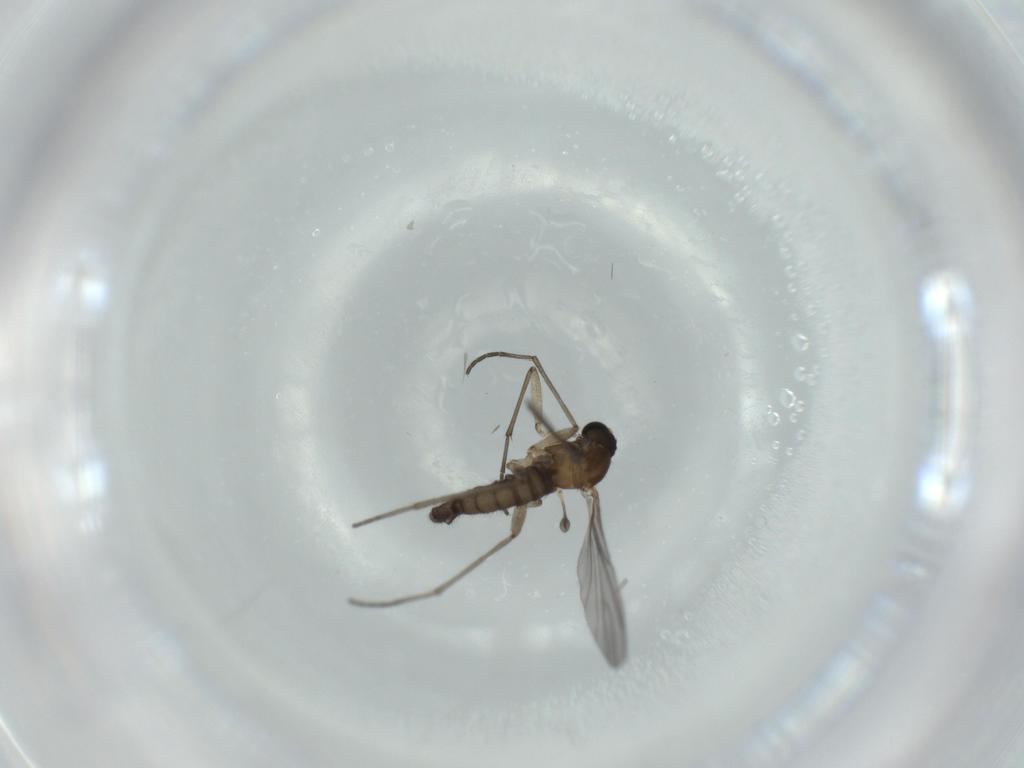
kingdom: Animalia
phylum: Arthropoda
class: Insecta
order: Diptera
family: Sciaridae
